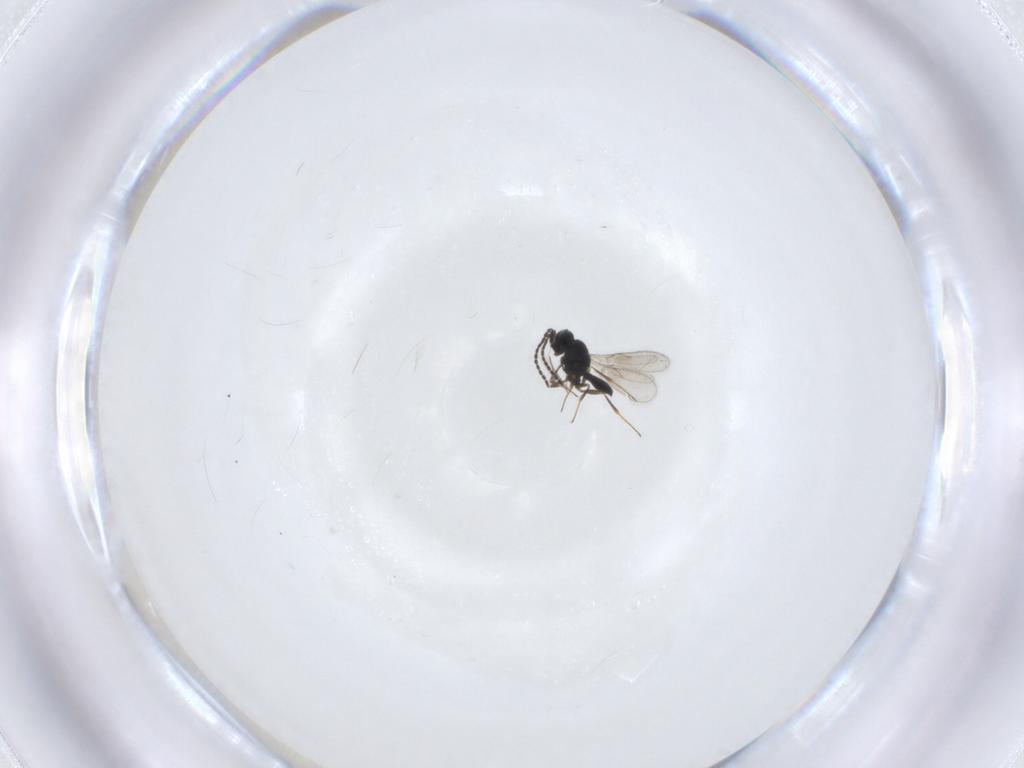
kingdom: Animalia
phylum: Arthropoda
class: Insecta
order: Hymenoptera
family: Scelionidae
